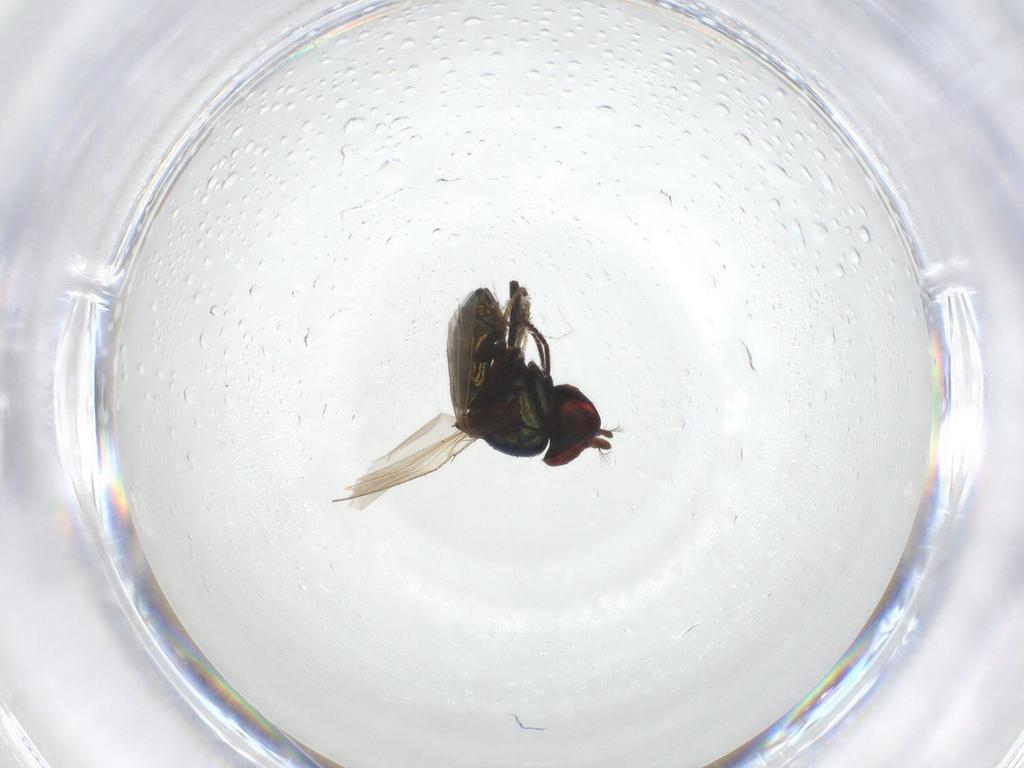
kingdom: Animalia
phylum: Arthropoda
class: Insecta
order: Diptera
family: Ephydridae
